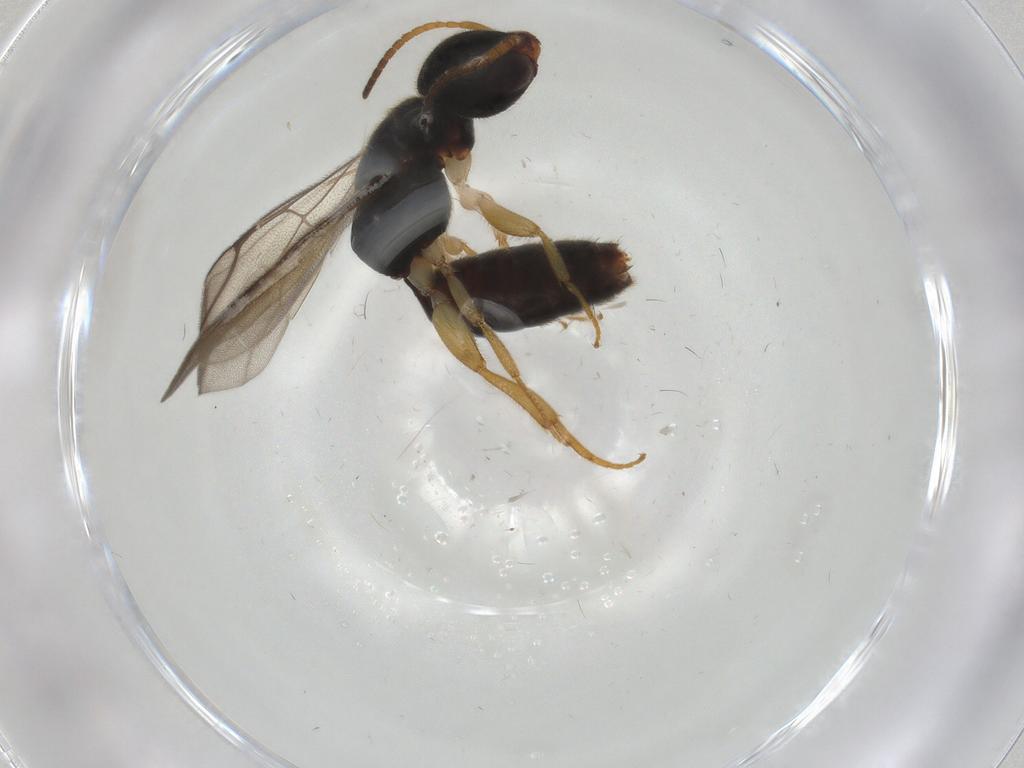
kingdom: Animalia
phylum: Arthropoda
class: Insecta
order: Hymenoptera
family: Bethylidae
